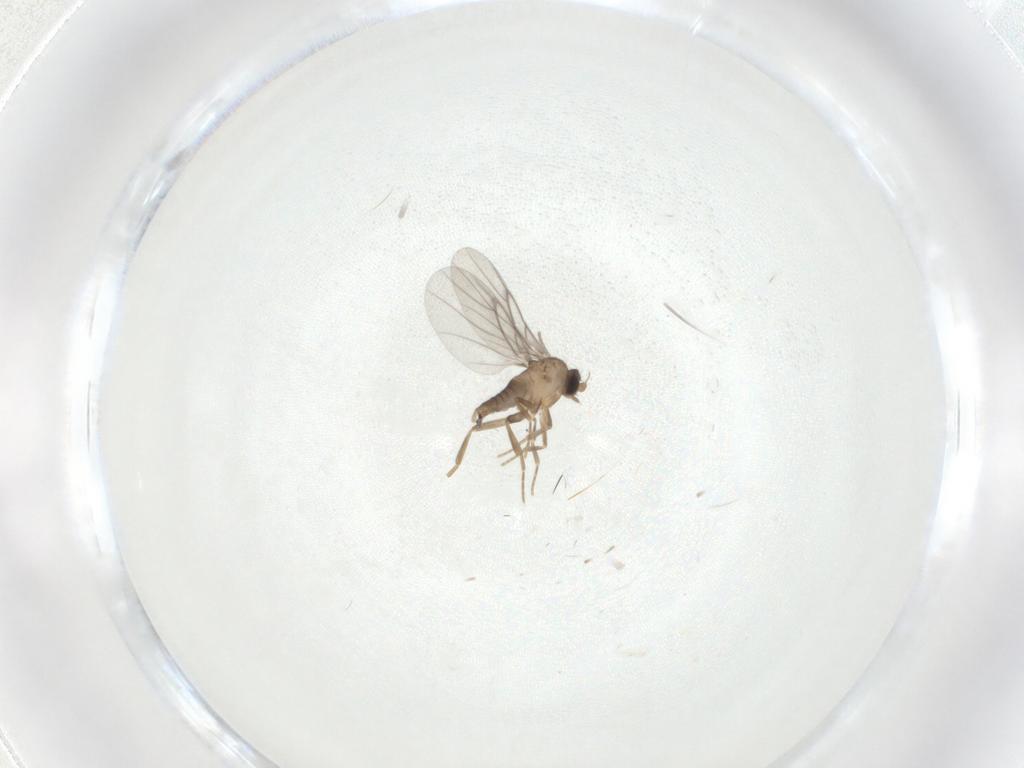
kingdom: Animalia
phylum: Arthropoda
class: Insecta
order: Diptera
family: Cecidomyiidae
